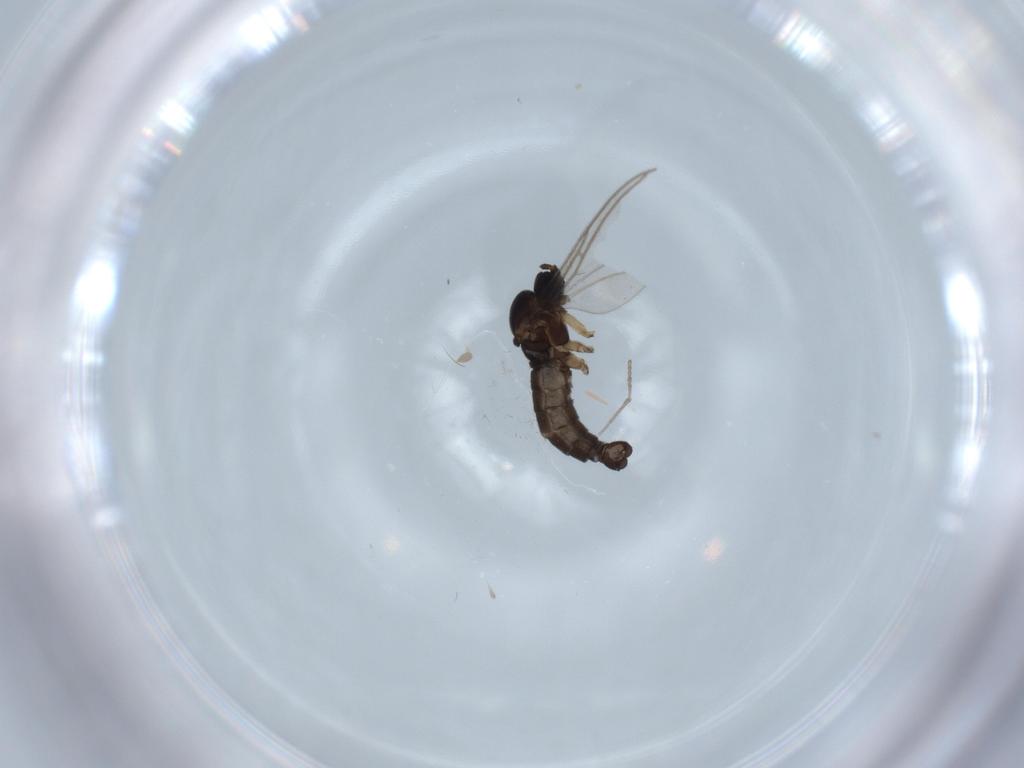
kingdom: Animalia
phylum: Arthropoda
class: Insecta
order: Diptera
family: Sciaridae
